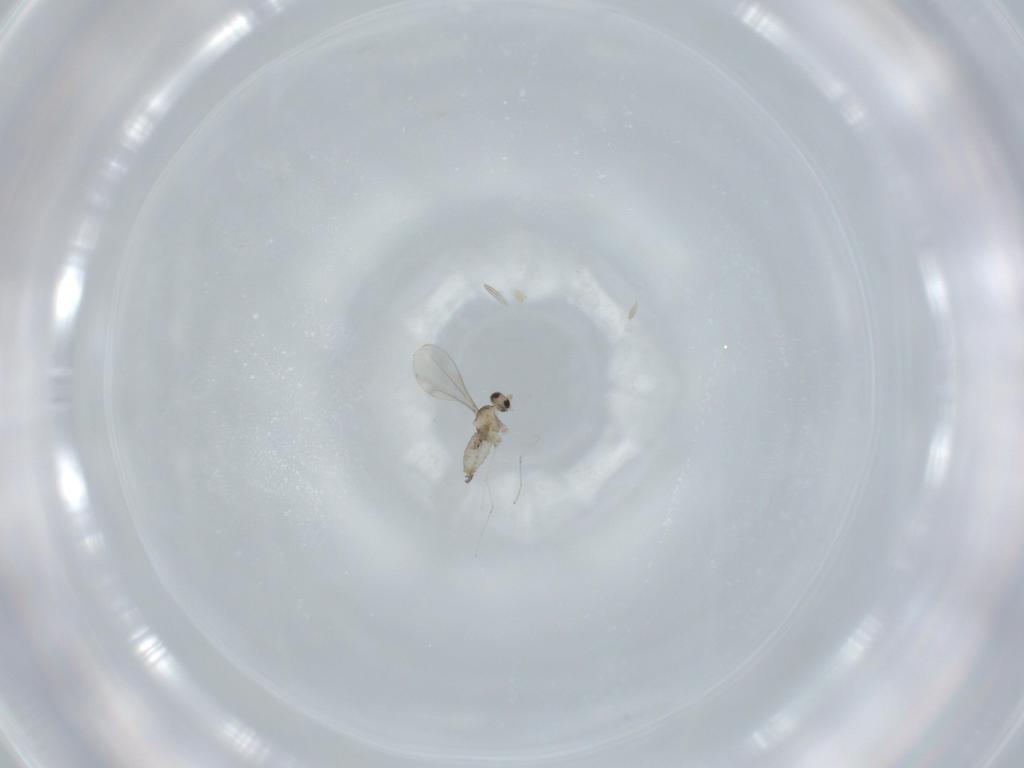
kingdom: Animalia
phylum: Arthropoda
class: Insecta
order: Diptera
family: Cecidomyiidae
